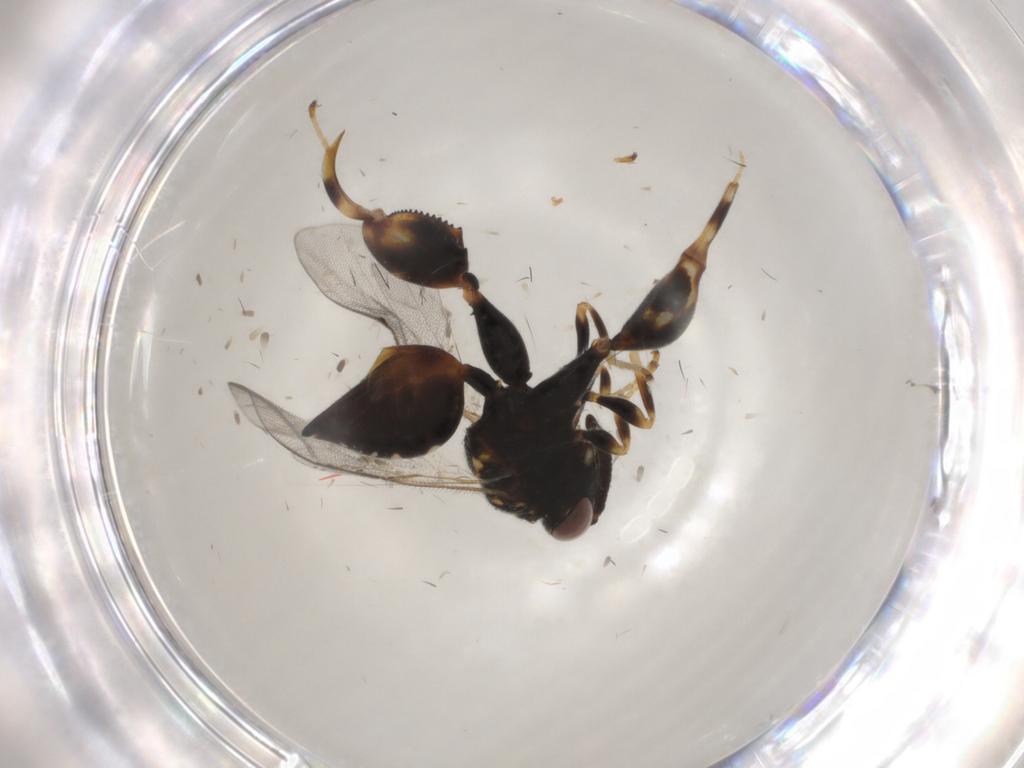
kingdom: Animalia
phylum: Arthropoda
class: Insecta
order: Hymenoptera
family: Chalcididae
